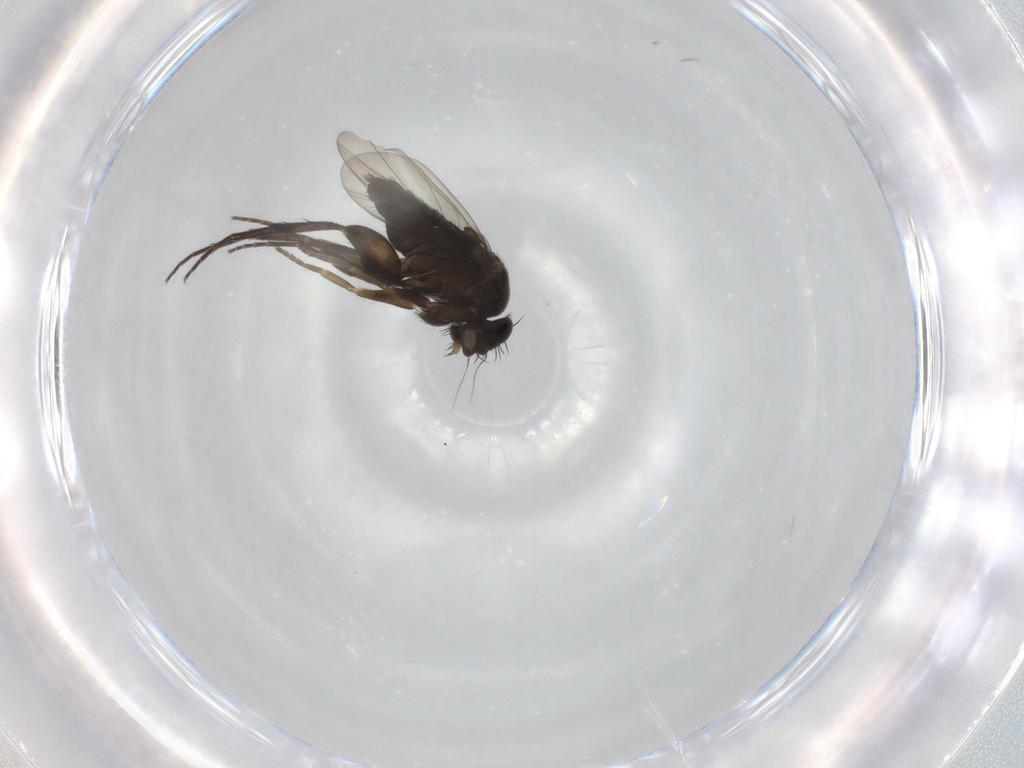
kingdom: Animalia
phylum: Arthropoda
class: Insecta
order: Diptera
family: Phoridae
